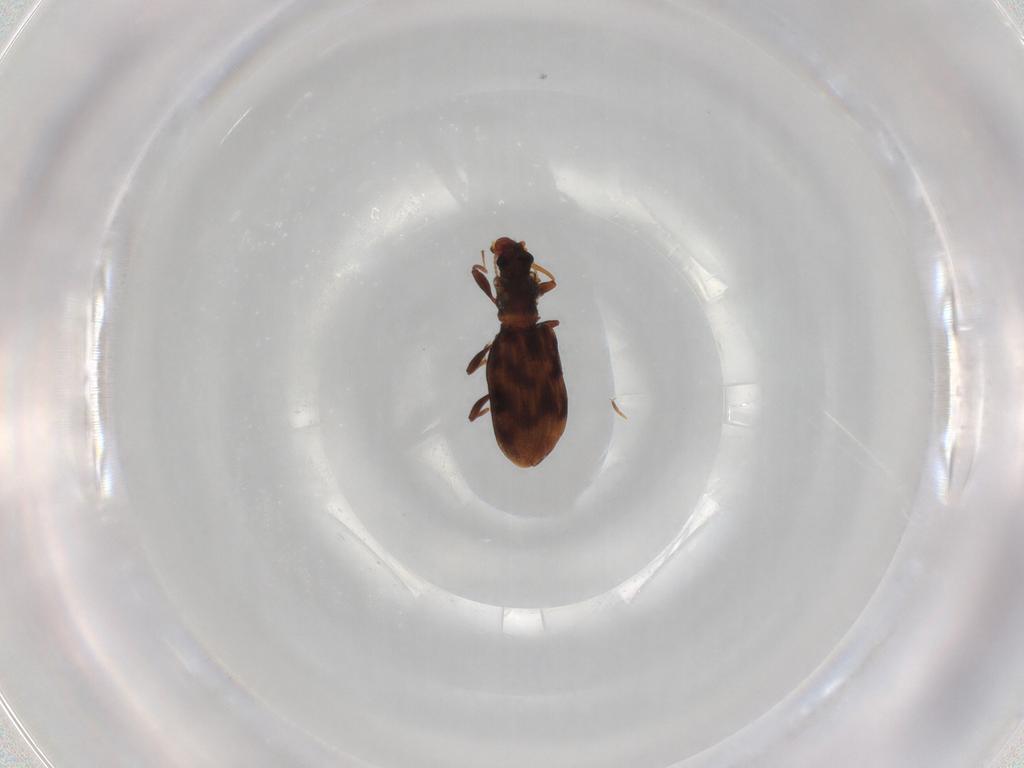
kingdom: Animalia
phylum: Arthropoda
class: Insecta
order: Coleoptera
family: Latridiidae
